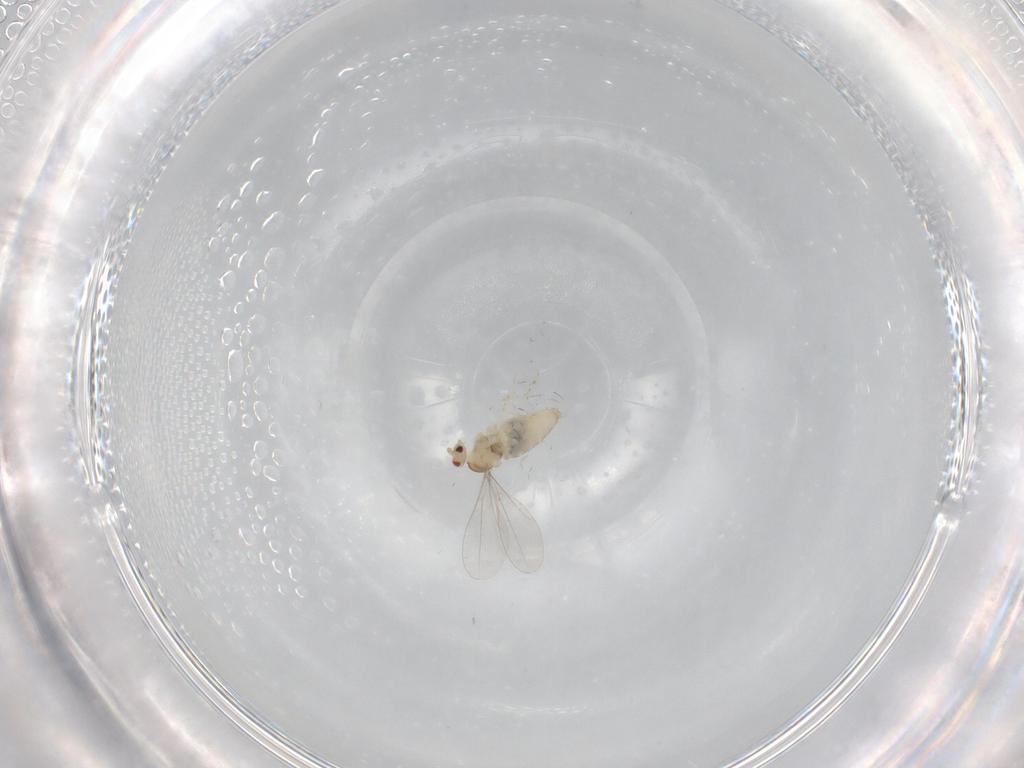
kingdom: Animalia
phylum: Arthropoda
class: Insecta
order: Diptera
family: Cecidomyiidae
